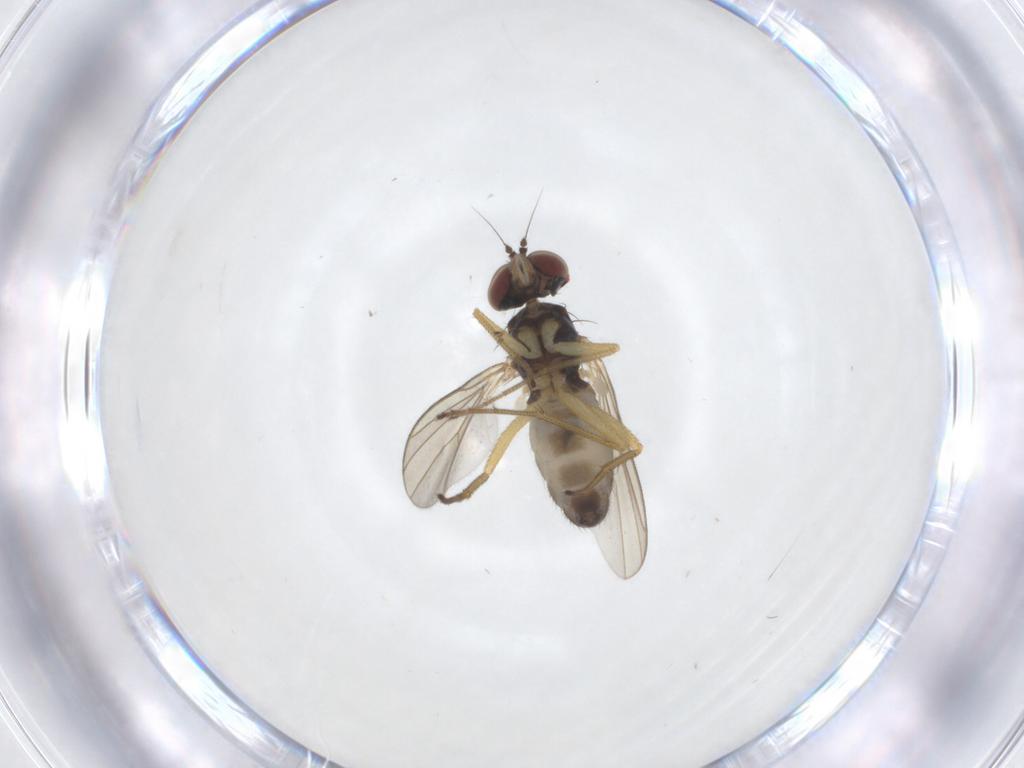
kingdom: Animalia
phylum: Arthropoda
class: Insecta
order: Diptera
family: Dolichopodidae
